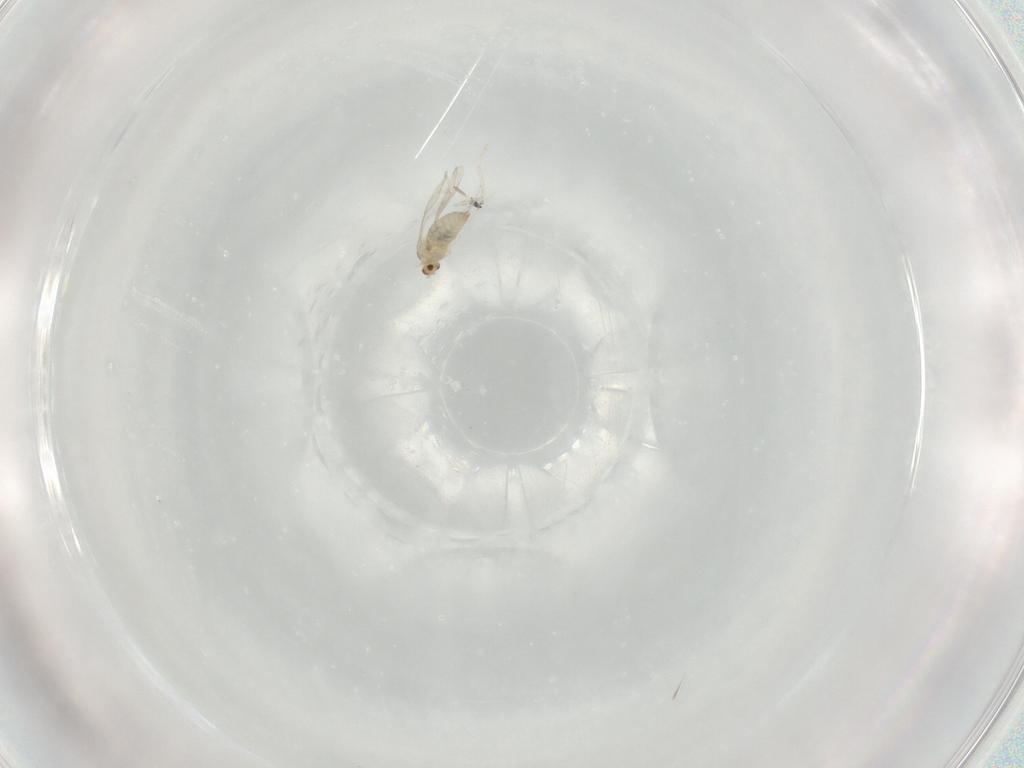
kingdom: Animalia
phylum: Arthropoda
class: Insecta
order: Diptera
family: Cecidomyiidae
